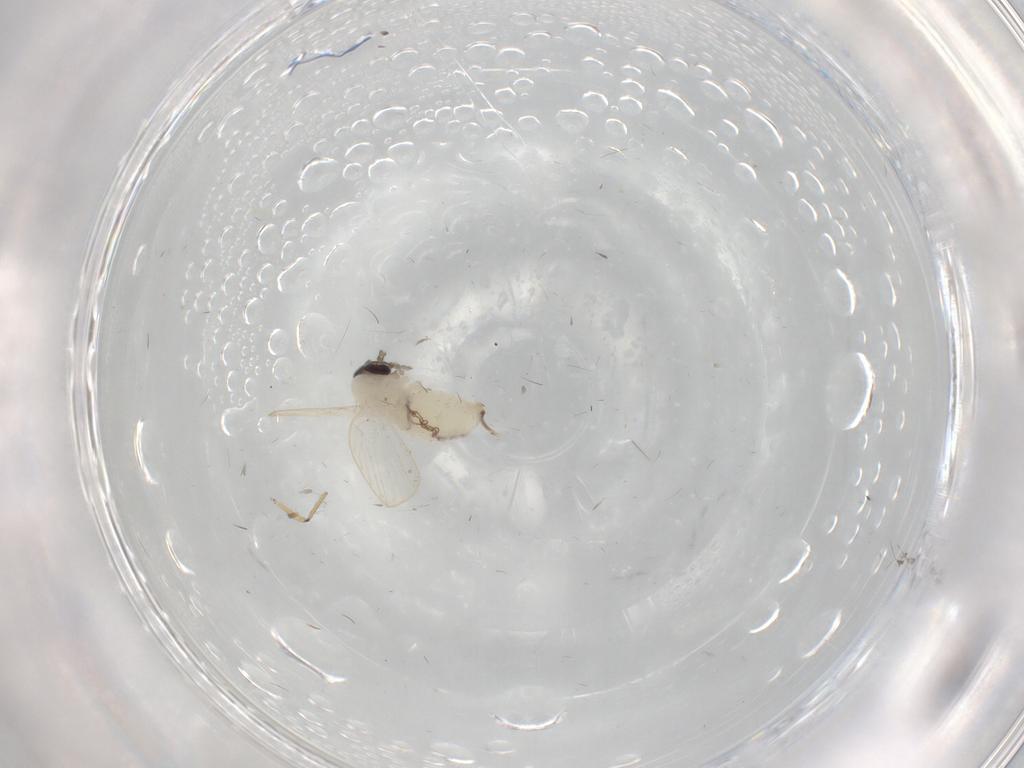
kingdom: Animalia
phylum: Arthropoda
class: Insecta
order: Diptera
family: Ceratopogonidae
